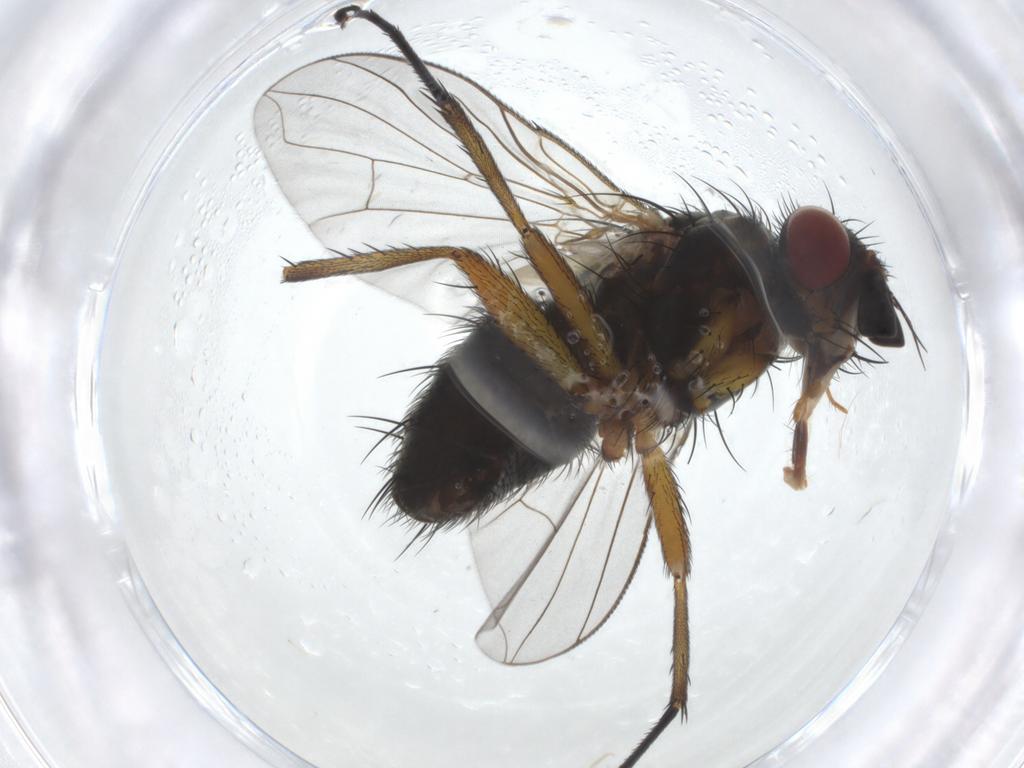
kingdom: Animalia
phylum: Arthropoda
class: Insecta
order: Diptera
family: Anthomyiidae
